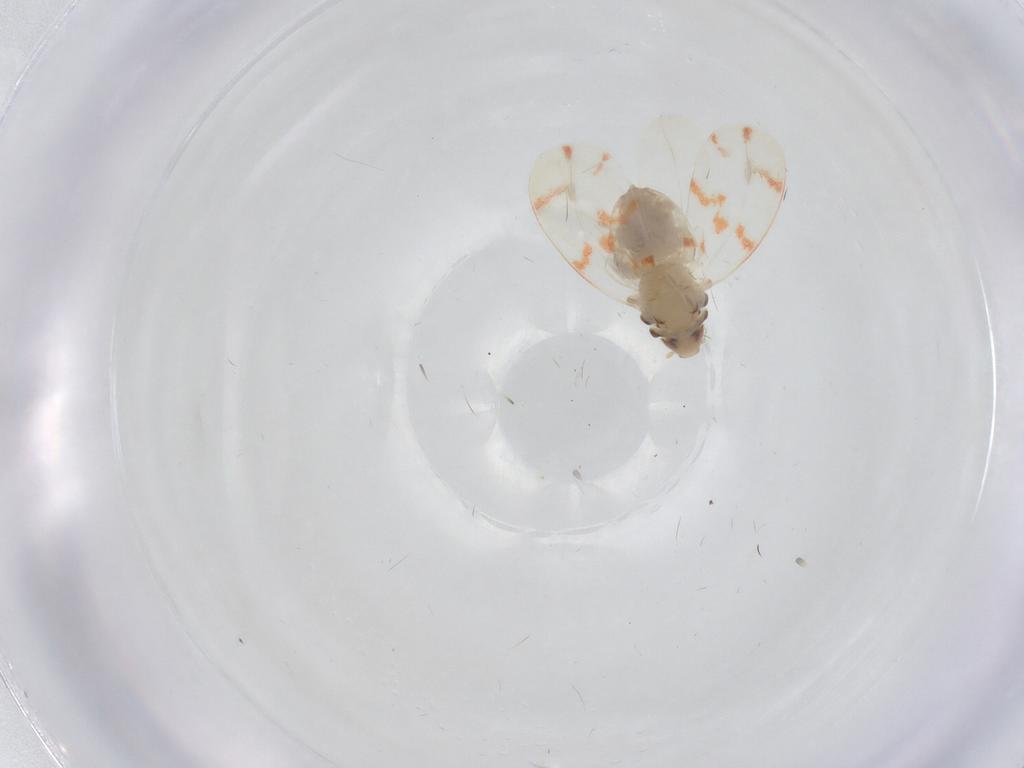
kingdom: Animalia
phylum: Arthropoda
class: Insecta
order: Hemiptera
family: Aleyrodidae
